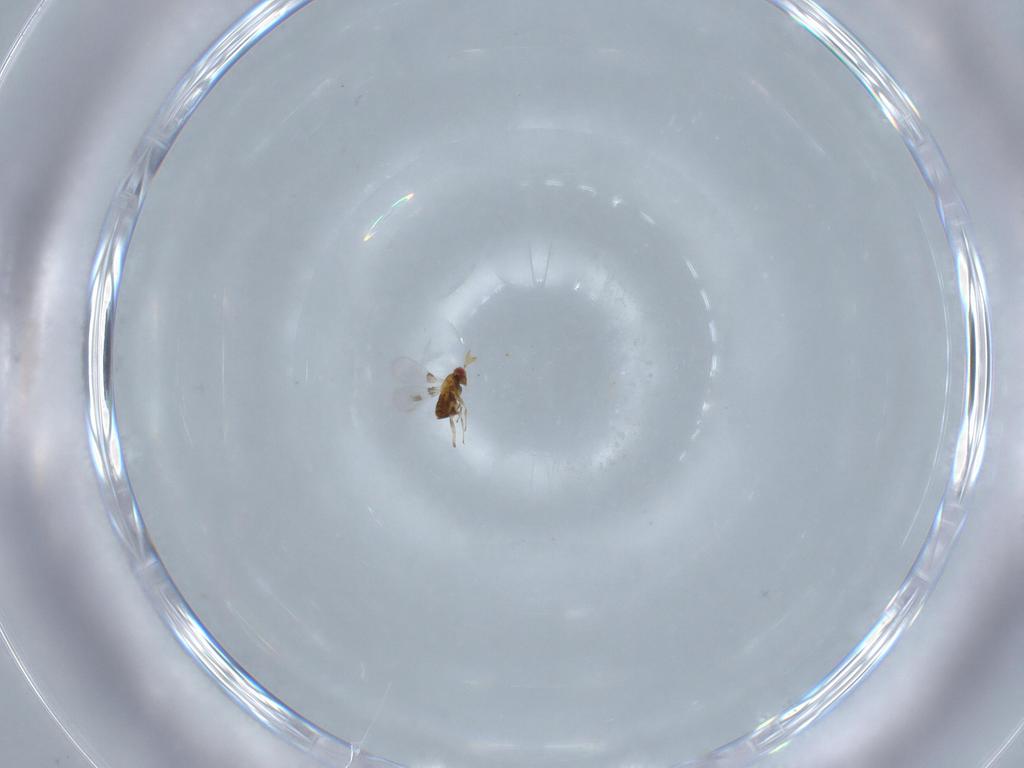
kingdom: Animalia
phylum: Arthropoda
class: Insecta
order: Hymenoptera
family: Trichogrammatidae
